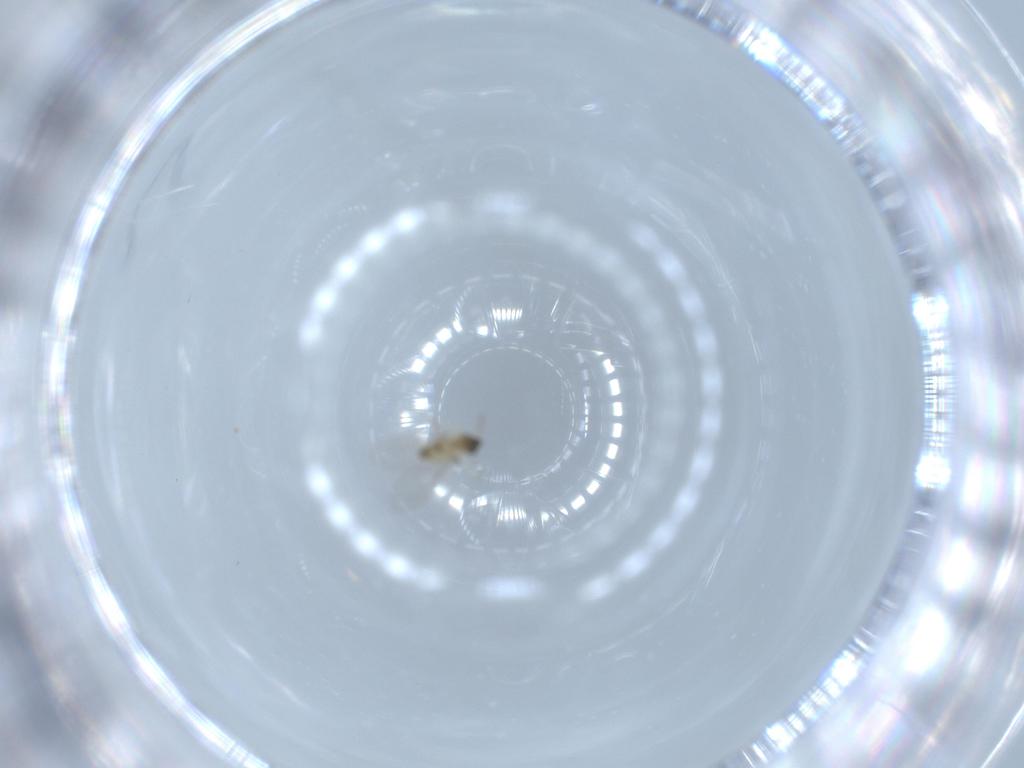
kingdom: Animalia
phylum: Arthropoda
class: Insecta
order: Diptera
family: Cecidomyiidae
